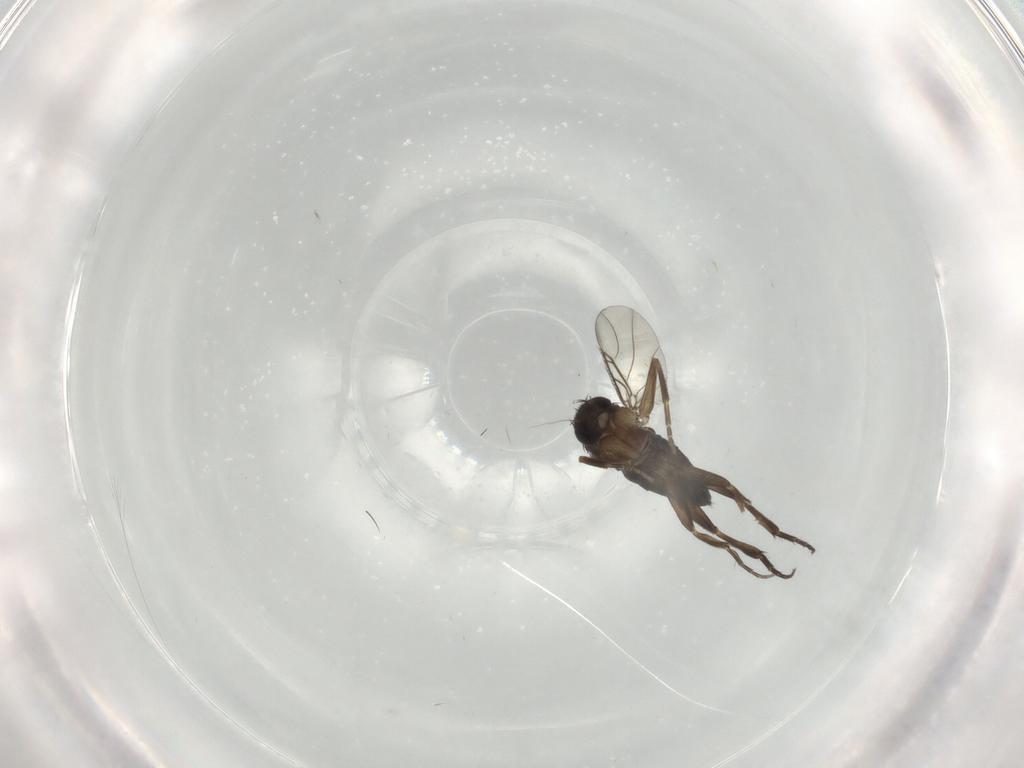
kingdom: Animalia
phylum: Arthropoda
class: Insecta
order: Diptera
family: Phoridae
